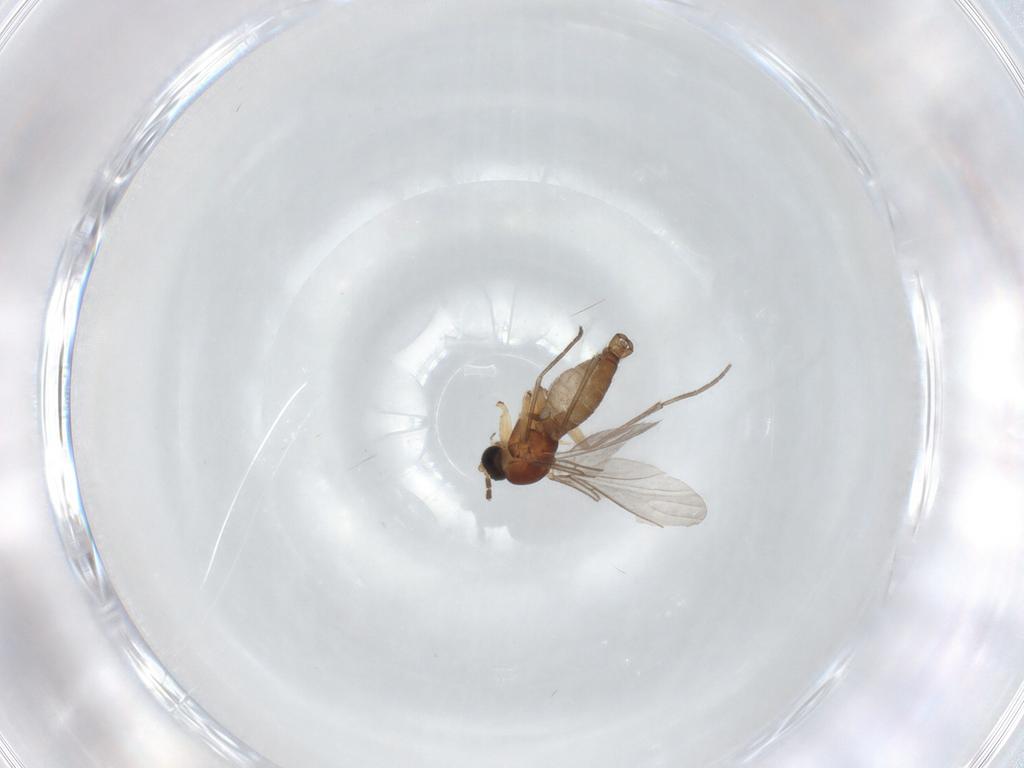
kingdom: Animalia
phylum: Arthropoda
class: Insecta
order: Diptera
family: Sciaridae
